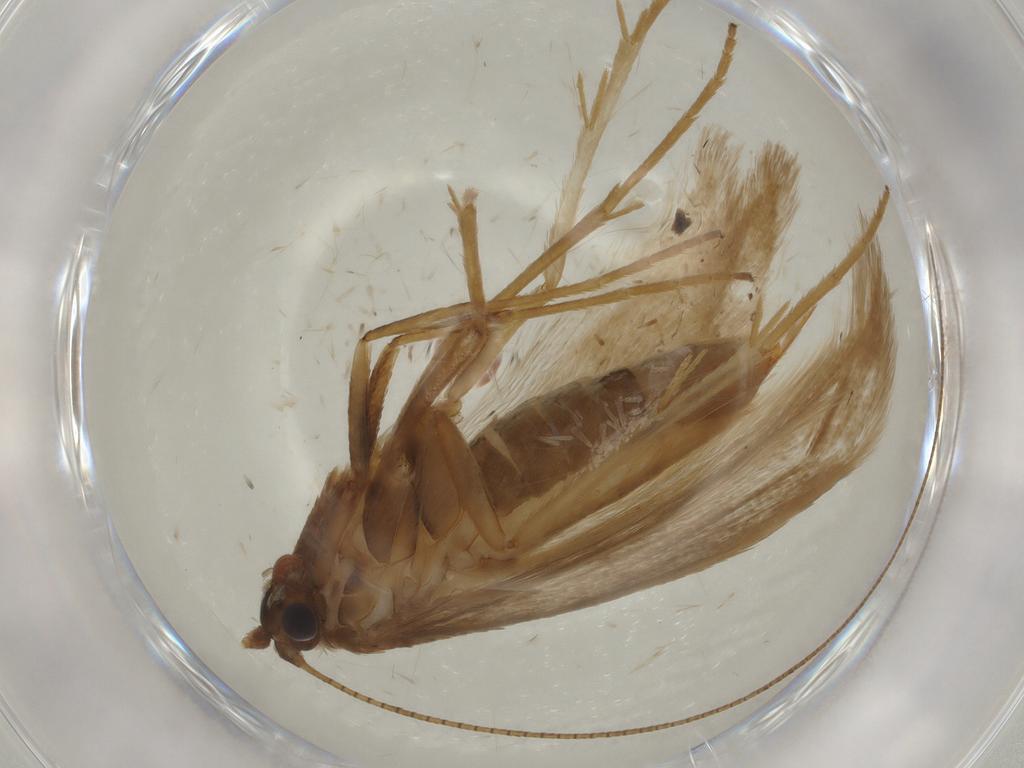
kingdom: Animalia
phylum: Arthropoda
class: Insecta
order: Lepidoptera
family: Adelidae
